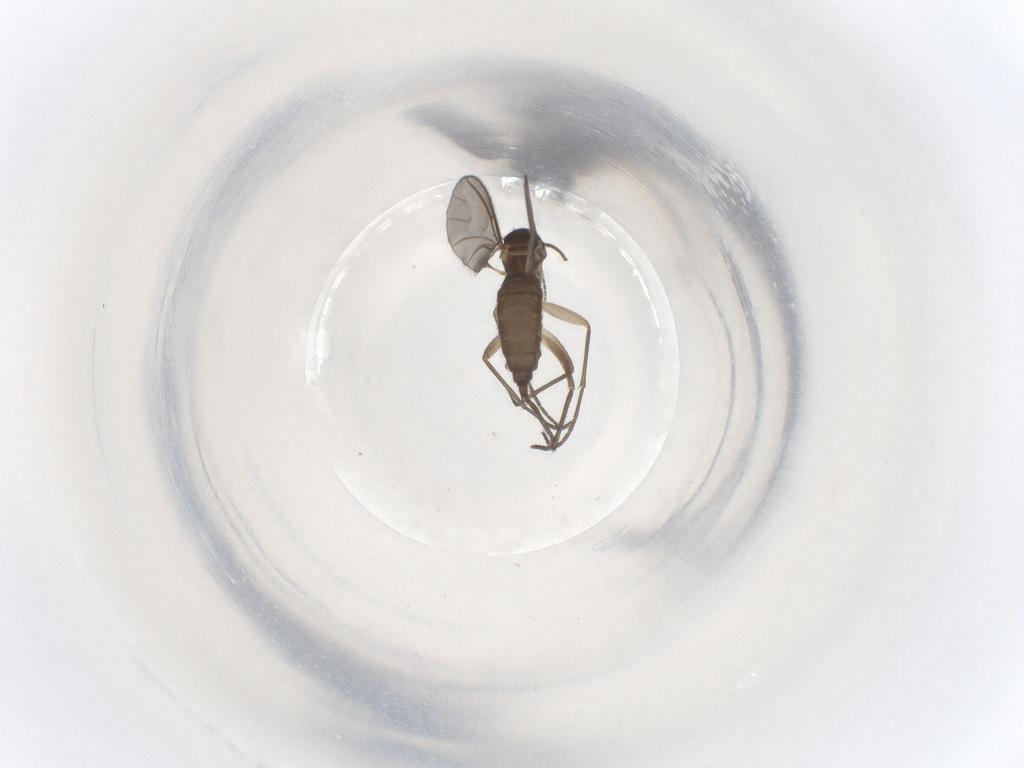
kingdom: Animalia
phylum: Arthropoda
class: Insecta
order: Diptera
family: Sciaridae
